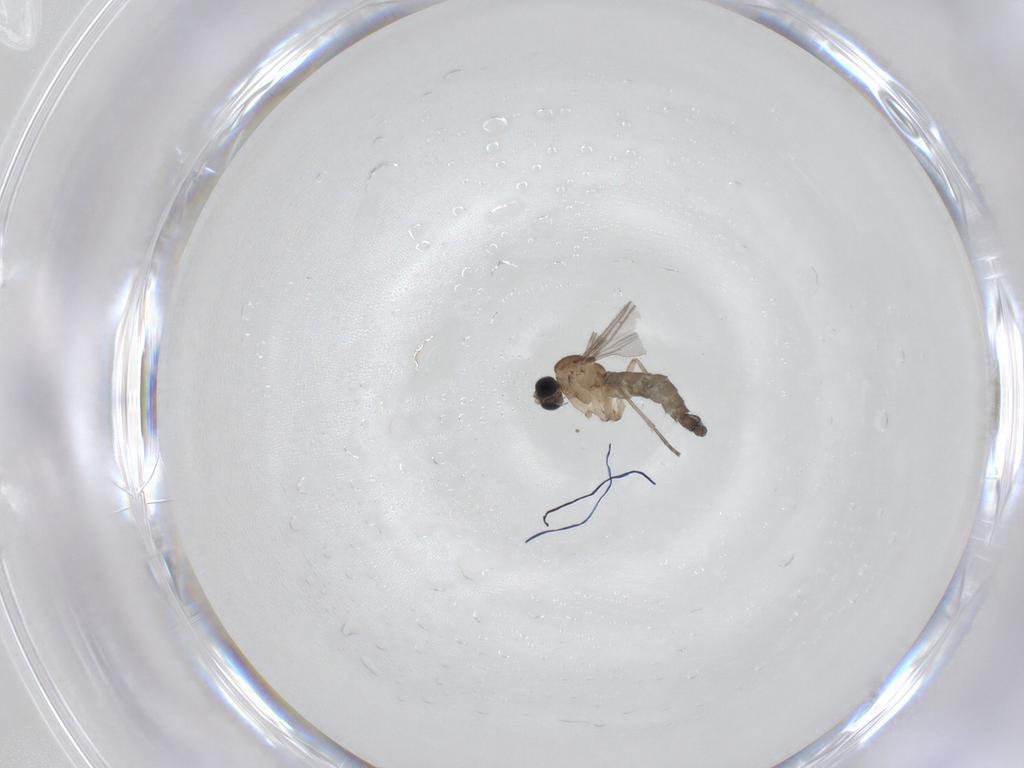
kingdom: Animalia
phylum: Arthropoda
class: Insecta
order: Diptera
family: Sciaridae
